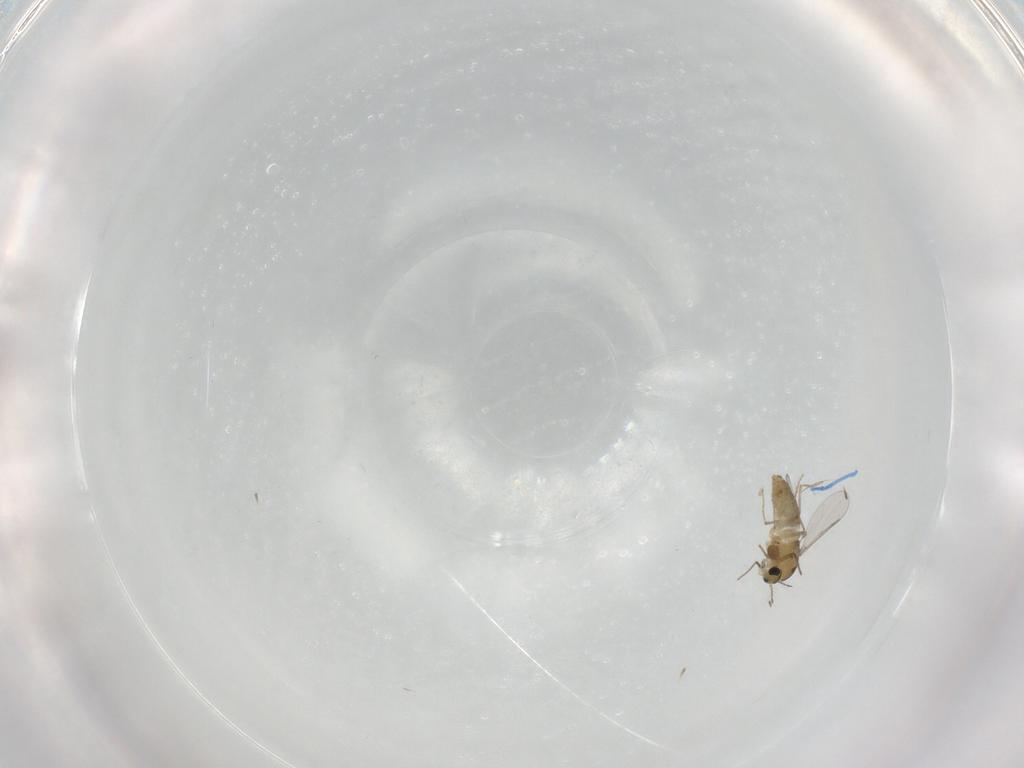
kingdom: Animalia
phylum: Arthropoda
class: Insecta
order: Diptera
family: Chironomidae
